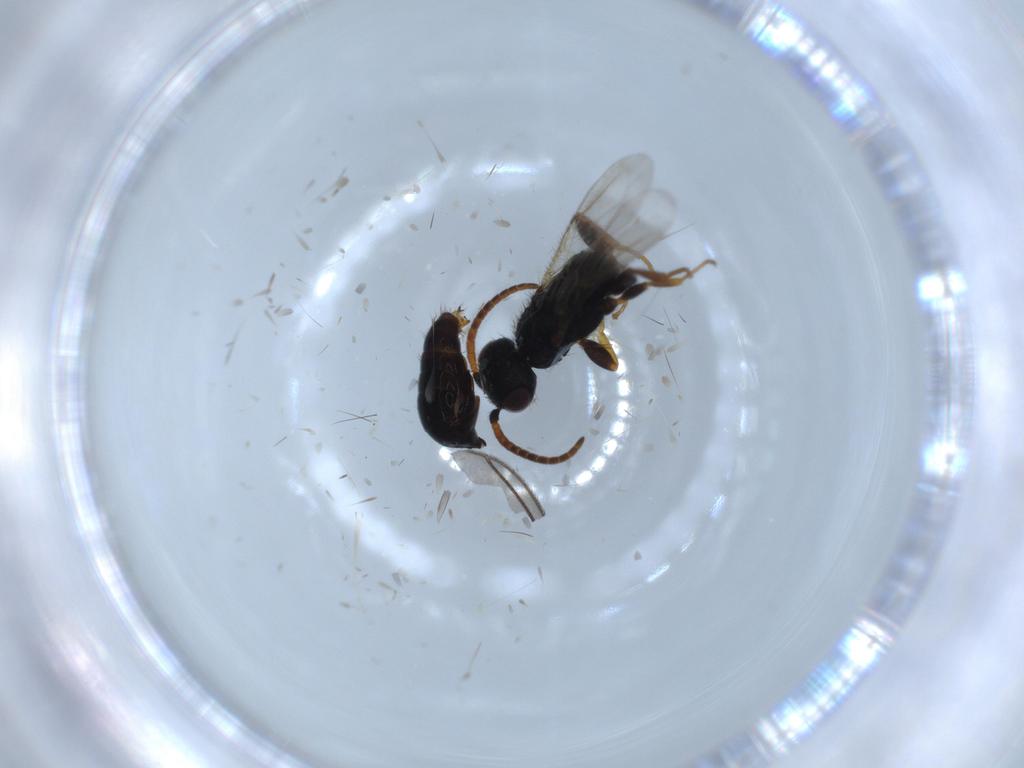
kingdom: Animalia
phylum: Arthropoda
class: Insecta
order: Hymenoptera
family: Bethylidae
